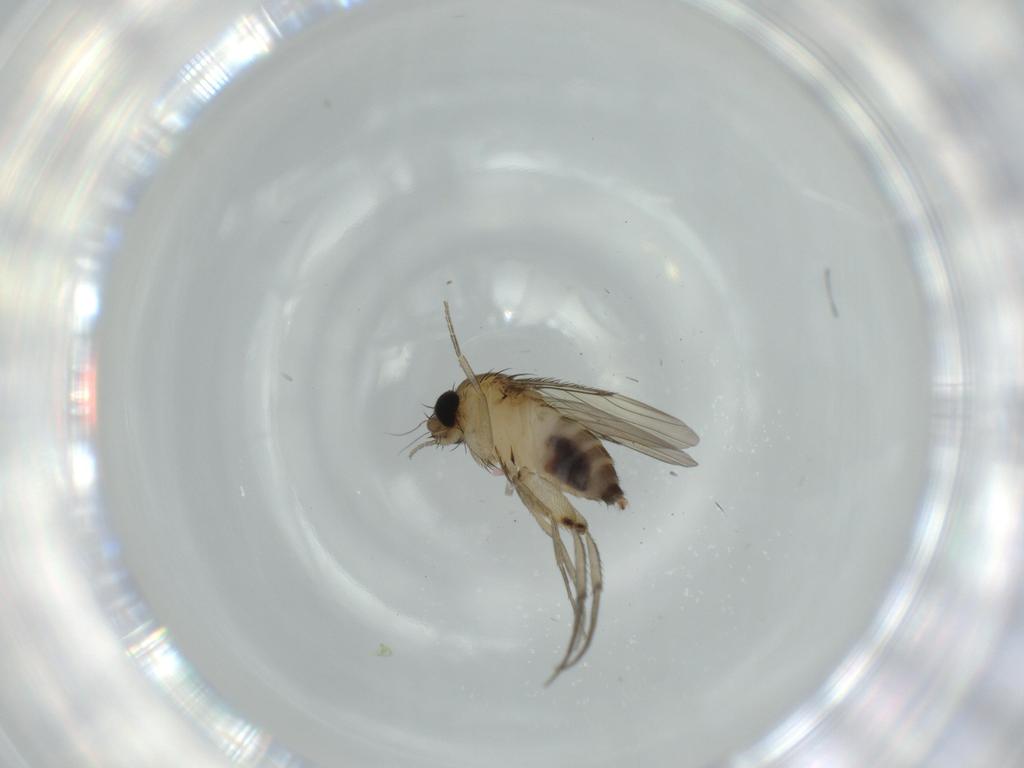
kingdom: Animalia
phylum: Arthropoda
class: Insecta
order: Diptera
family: Phoridae
